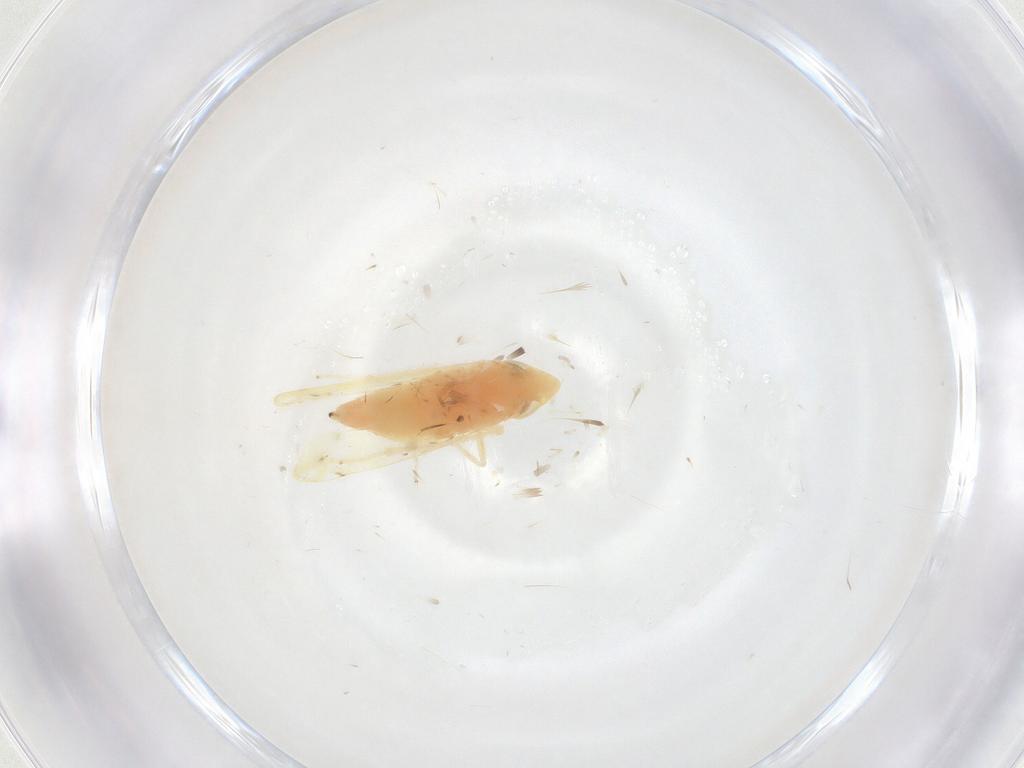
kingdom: Animalia
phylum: Arthropoda
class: Insecta
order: Hemiptera
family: Cicadellidae
